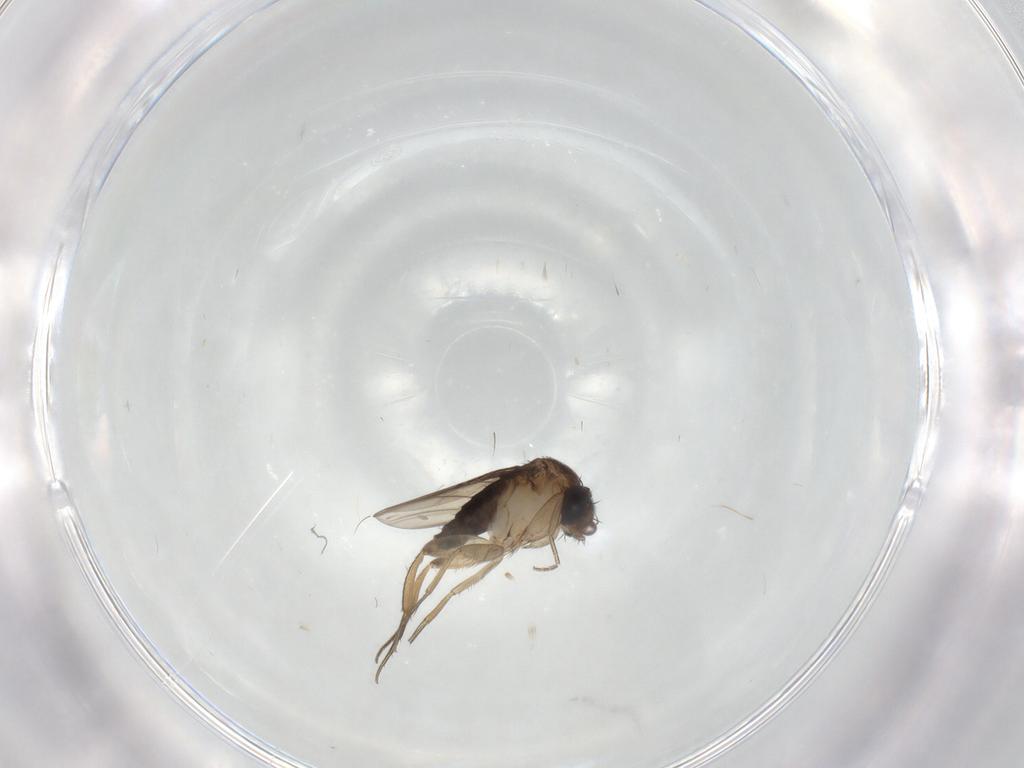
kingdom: Animalia
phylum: Arthropoda
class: Insecta
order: Diptera
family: Phoridae
